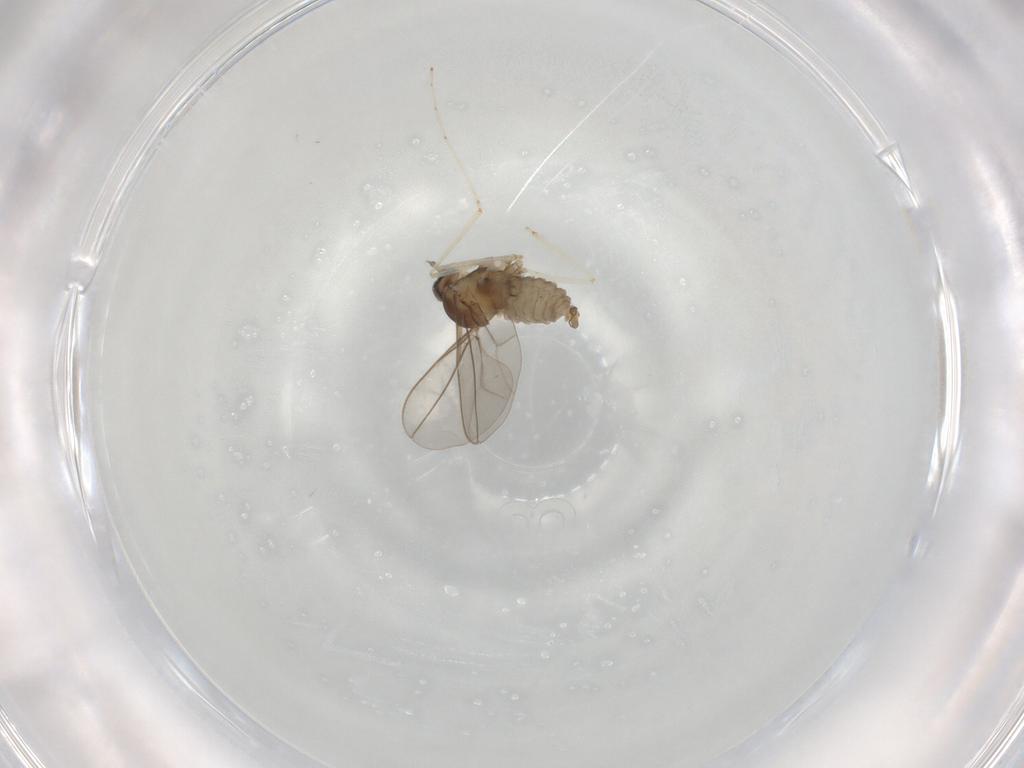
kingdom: Animalia
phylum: Arthropoda
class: Insecta
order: Diptera
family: Cecidomyiidae
